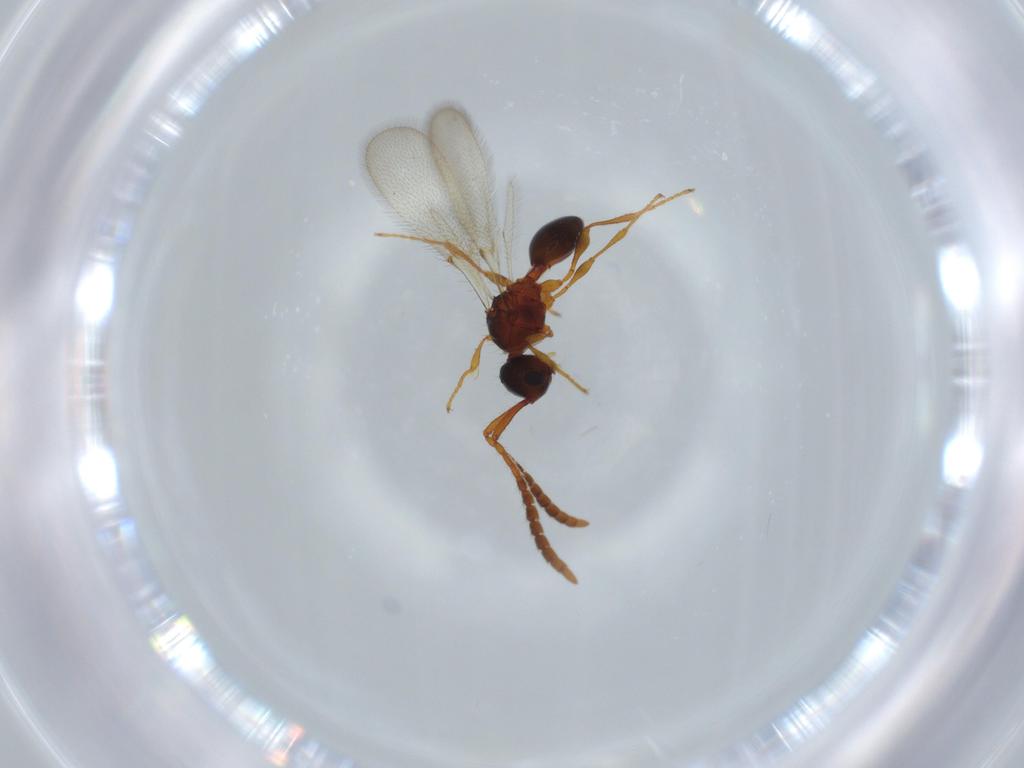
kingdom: Animalia
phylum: Arthropoda
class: Insecta
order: Hymenoptera
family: Diapriidae
